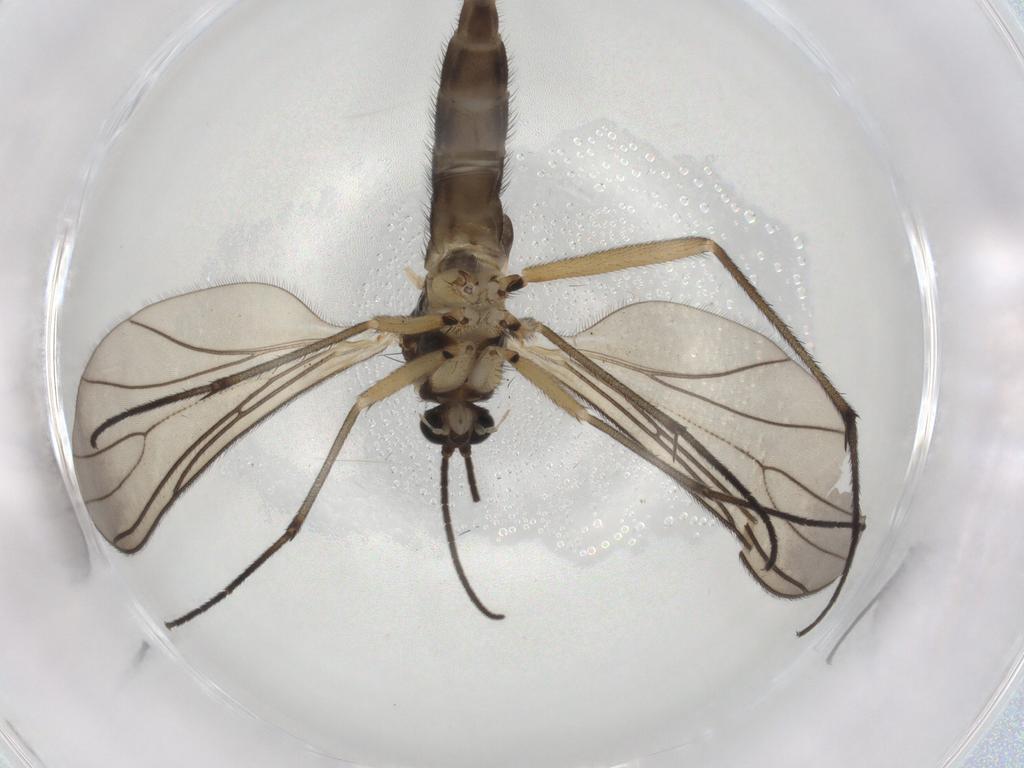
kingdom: Animalia
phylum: Arthropoda
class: Insecta
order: Diptera
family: Sciaridae
